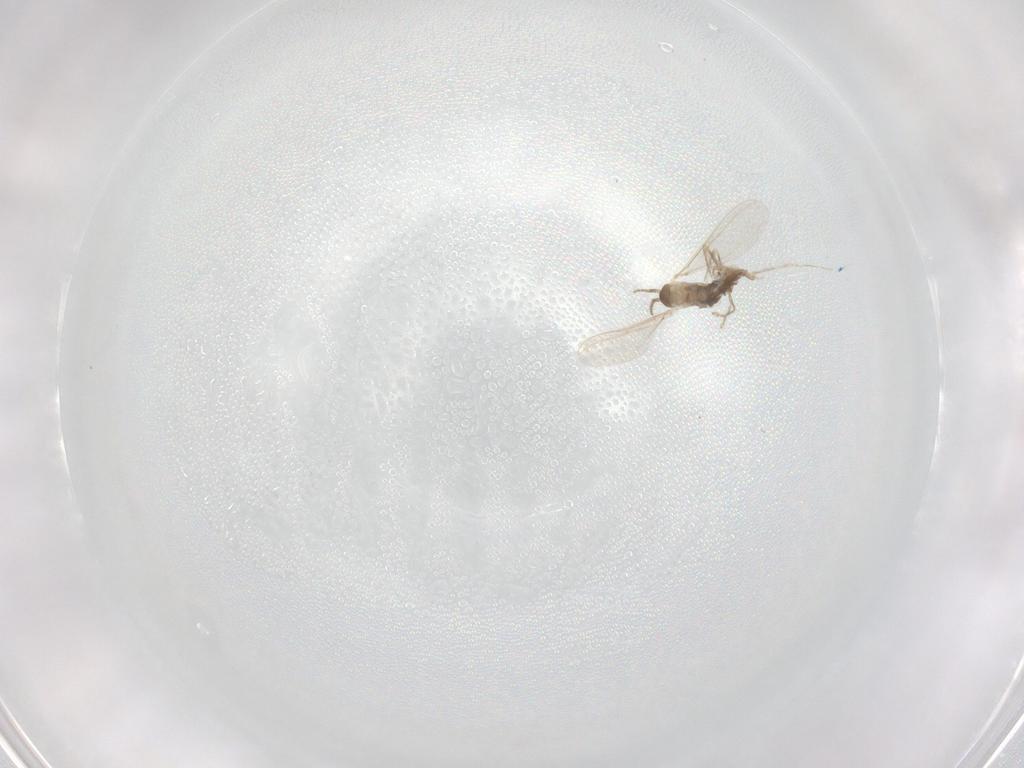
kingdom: Animalia
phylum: Arthropoda
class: Insecta
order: Diptera
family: Cecidomyiidae
